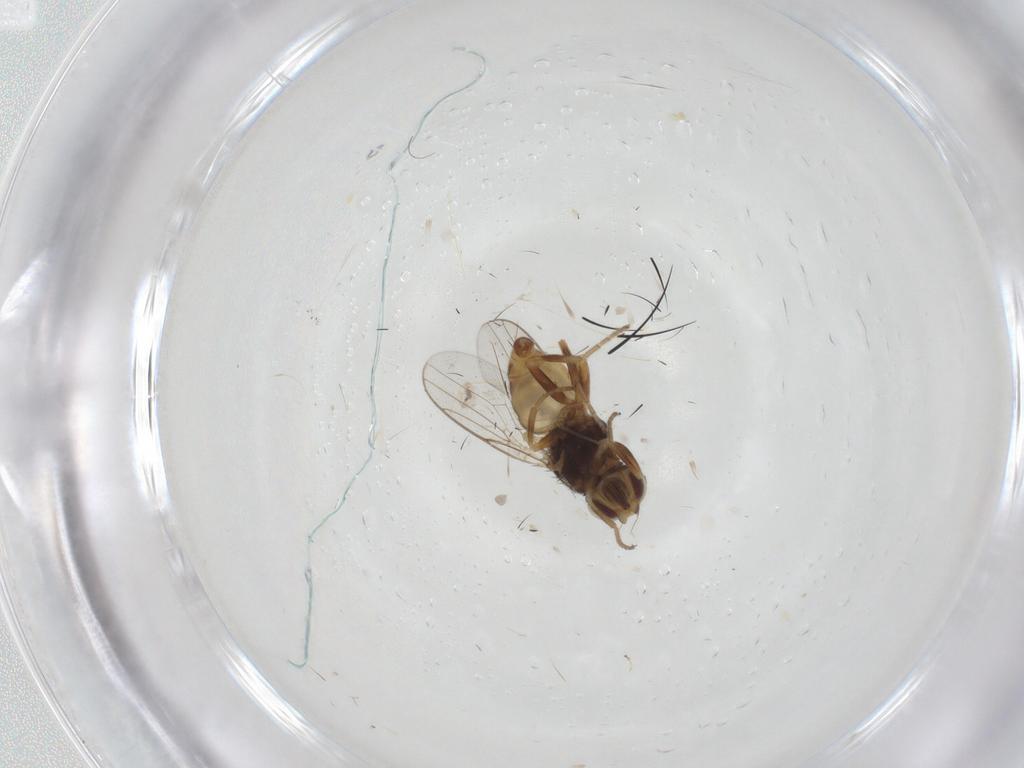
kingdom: Animalia
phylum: Arthropoda
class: Insecta
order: Diptera
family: Chloropidae
